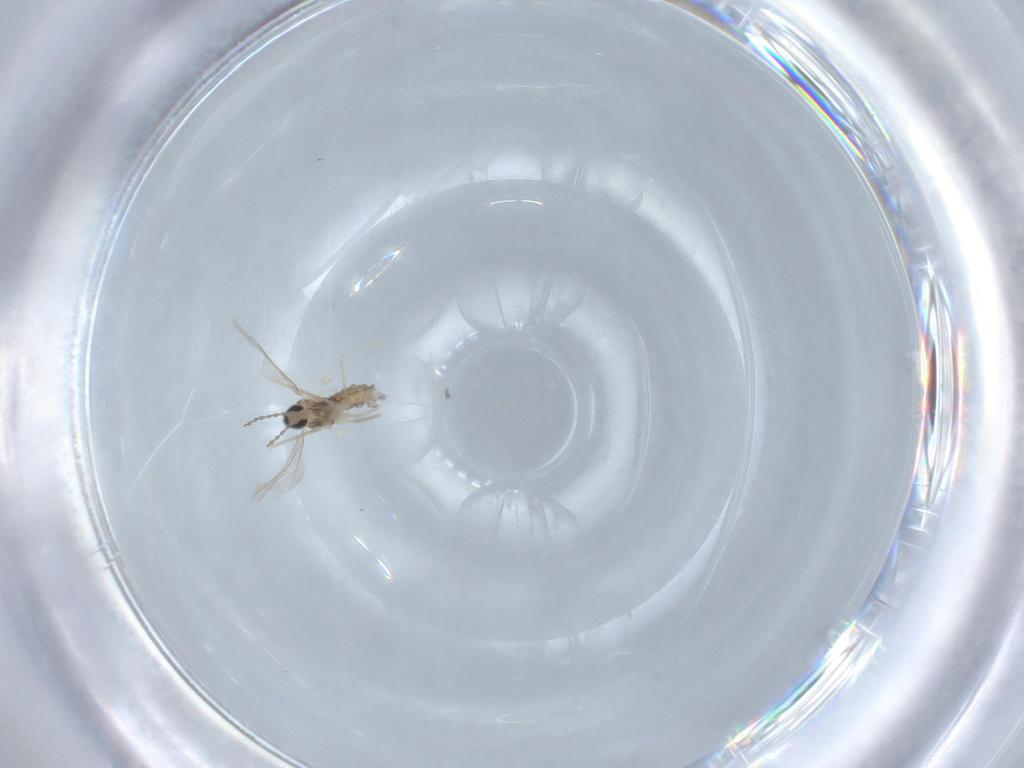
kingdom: Animalia
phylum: Arthropoda
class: Insecta
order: Diptera
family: Cecidomyiidae
